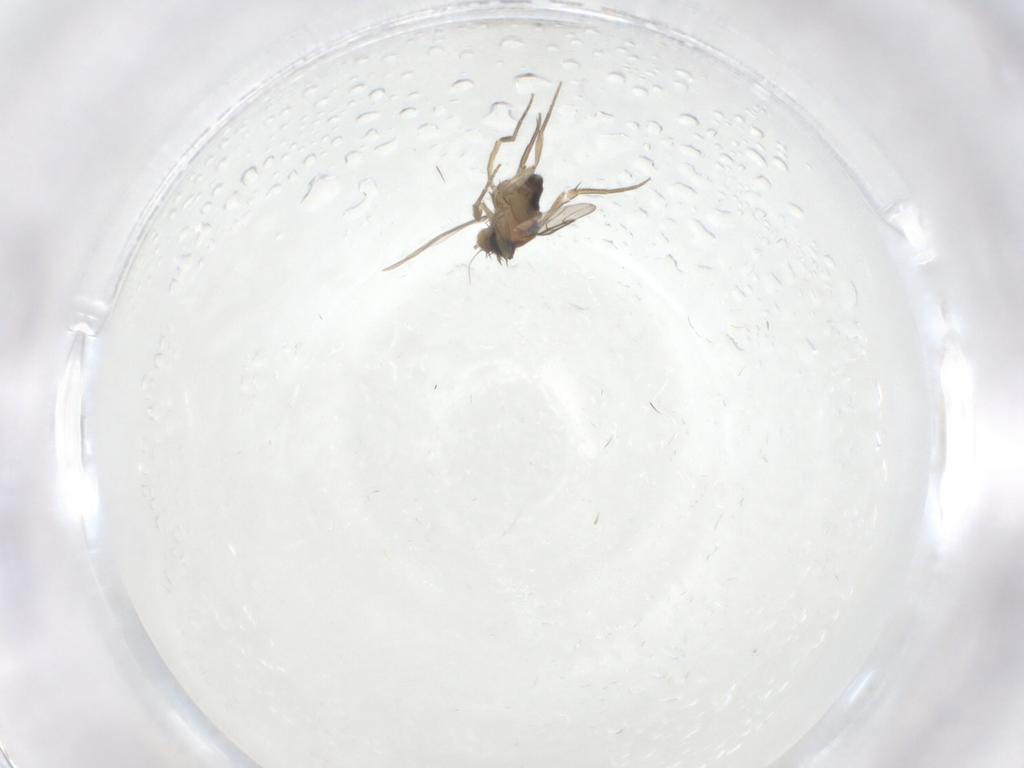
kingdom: Animalia
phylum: Arthropoda
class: Insecta
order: Diptera
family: Phoridae
